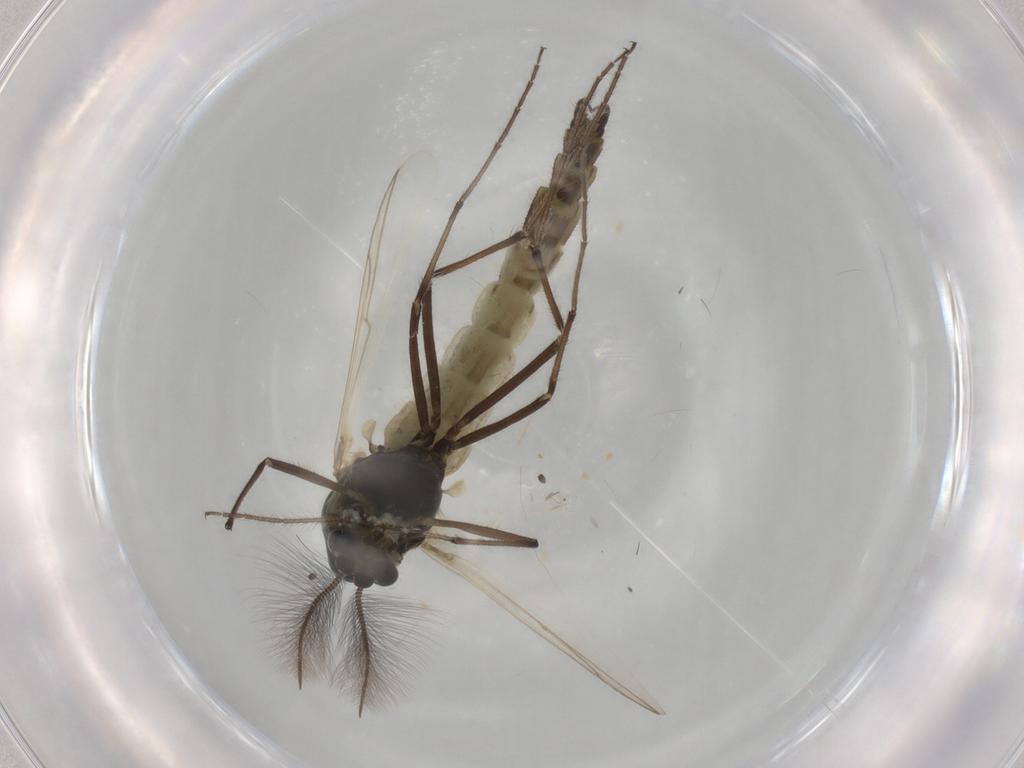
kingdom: Animalia
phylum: Arthropoda
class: Insecta
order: Diptera
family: Chironomidae
